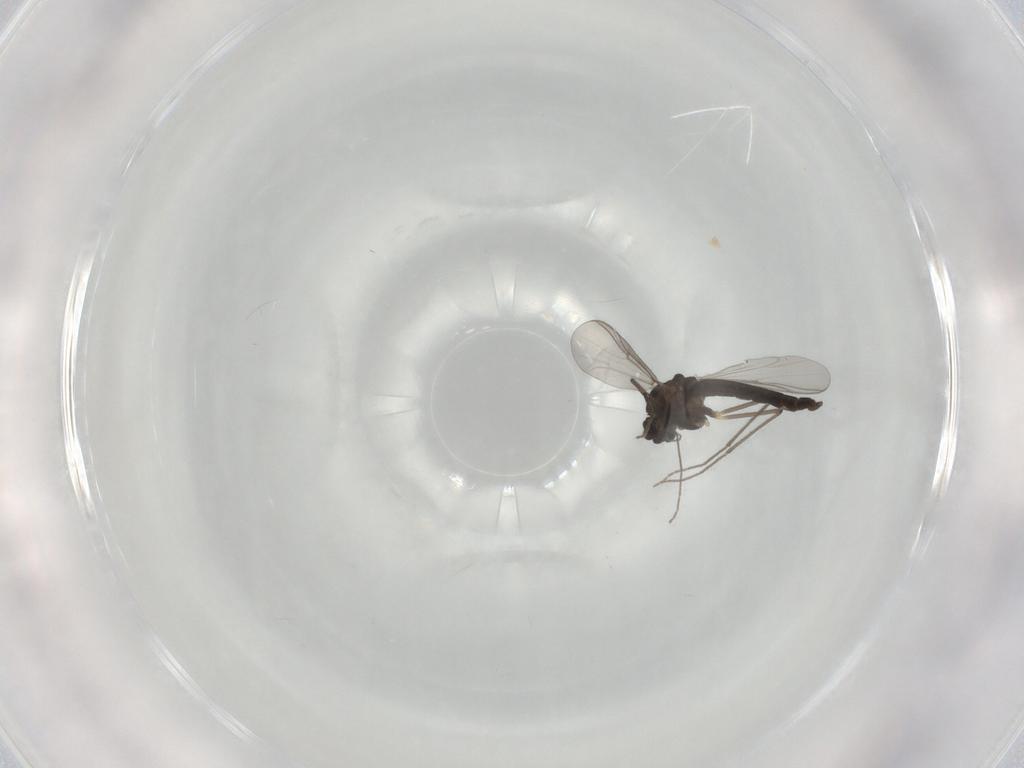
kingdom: Animalia
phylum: Arthropoda
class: Insecta
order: Diptera
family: Chironomidae
